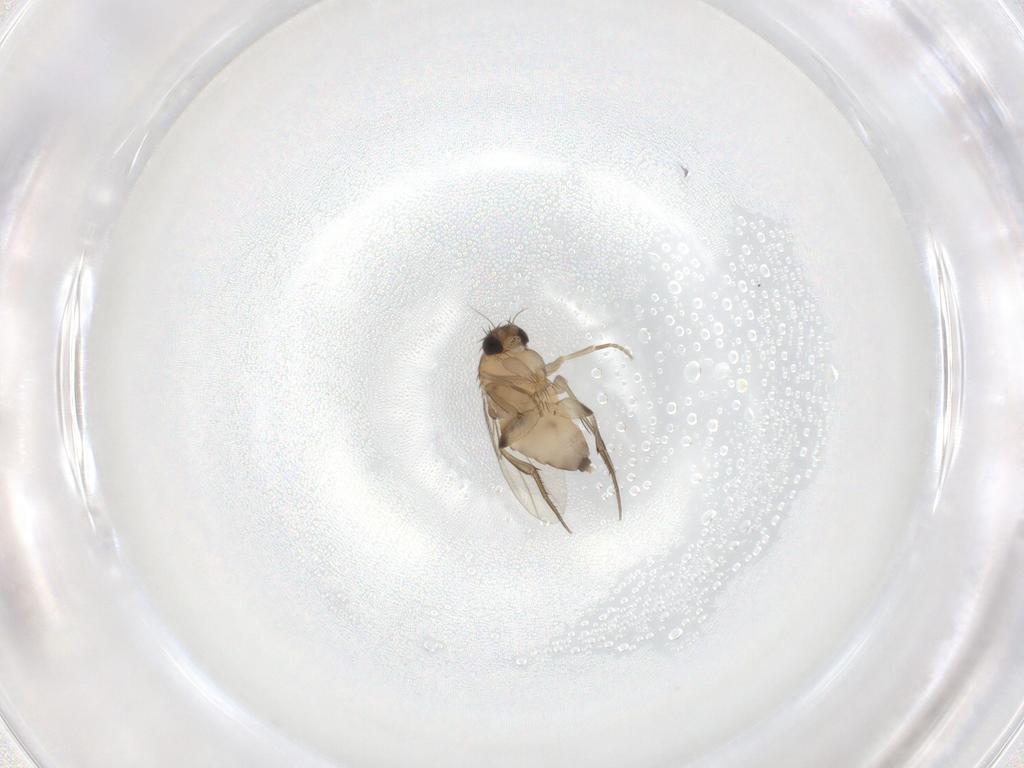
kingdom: Animalia
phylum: Arthropoda
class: Insecta
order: Diptera
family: Phoridae
